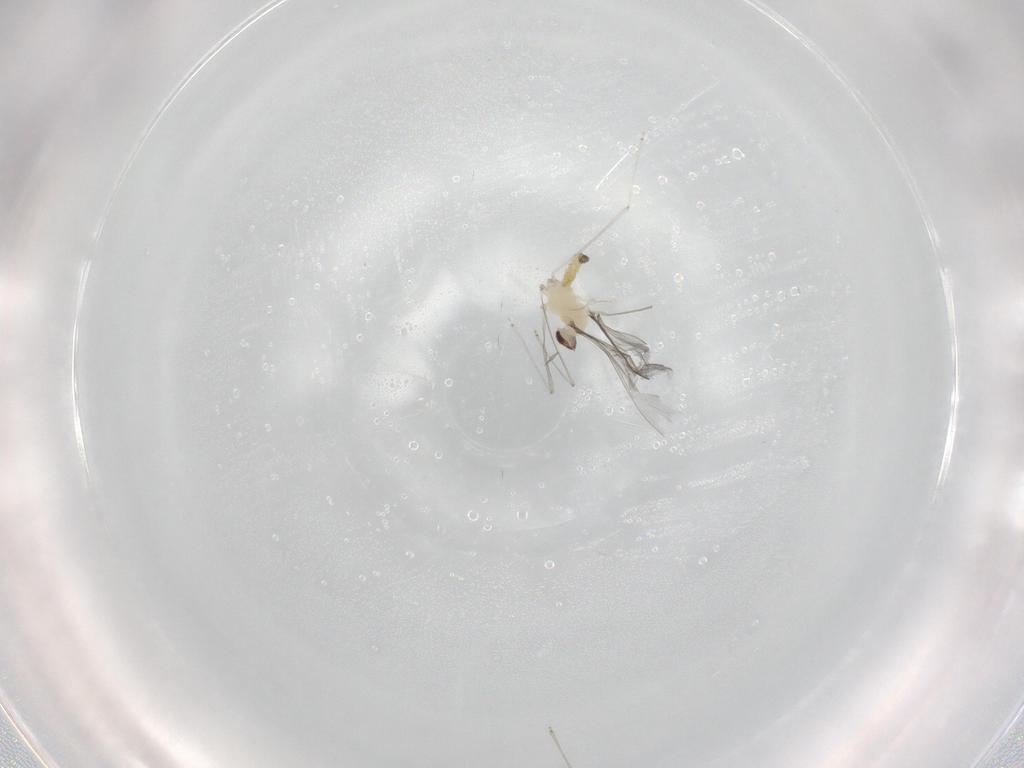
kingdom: Animalia
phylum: Arthropoda
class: Insecta
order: Diptera
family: Cecidomyiidae
